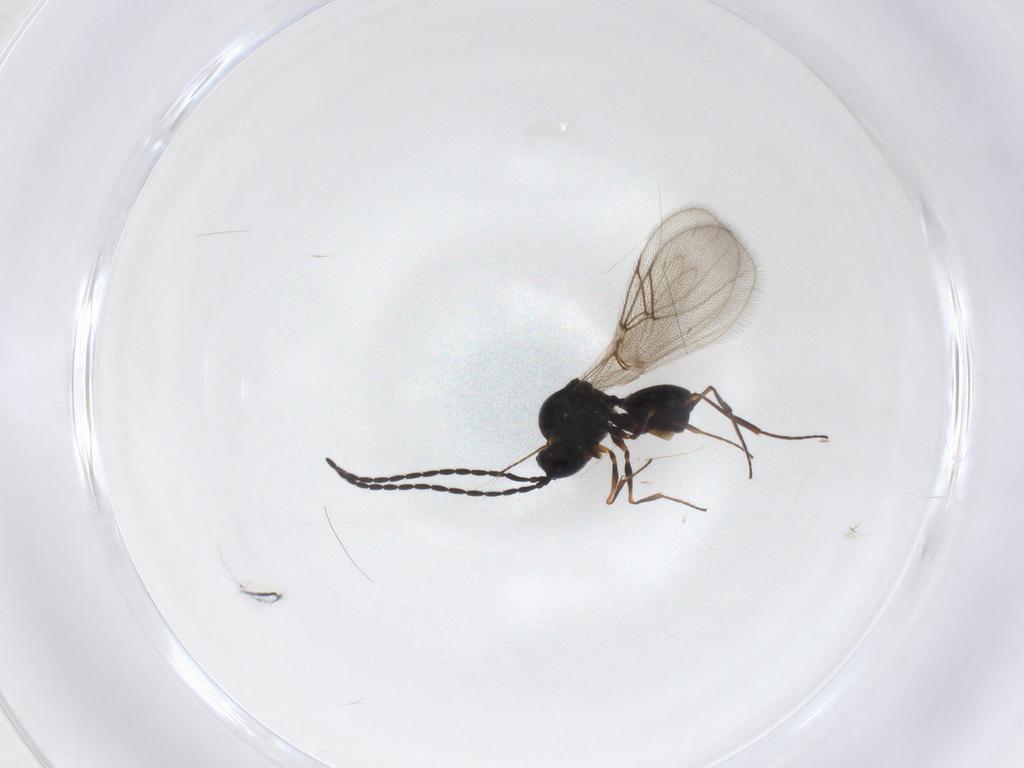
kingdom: Animalia
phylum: Arthropoda
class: Insecta
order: Hymenoptera
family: Figitidae
